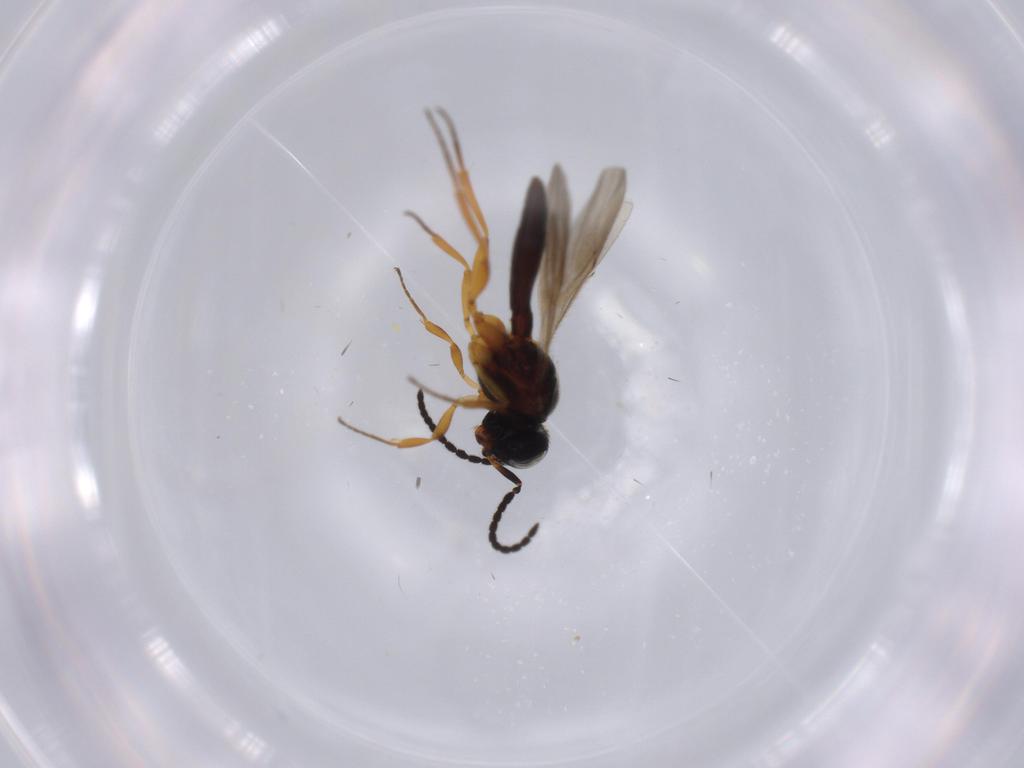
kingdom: Animalia
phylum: Arthropoda
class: Insecta
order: Hymenoptera
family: Scelionidae
